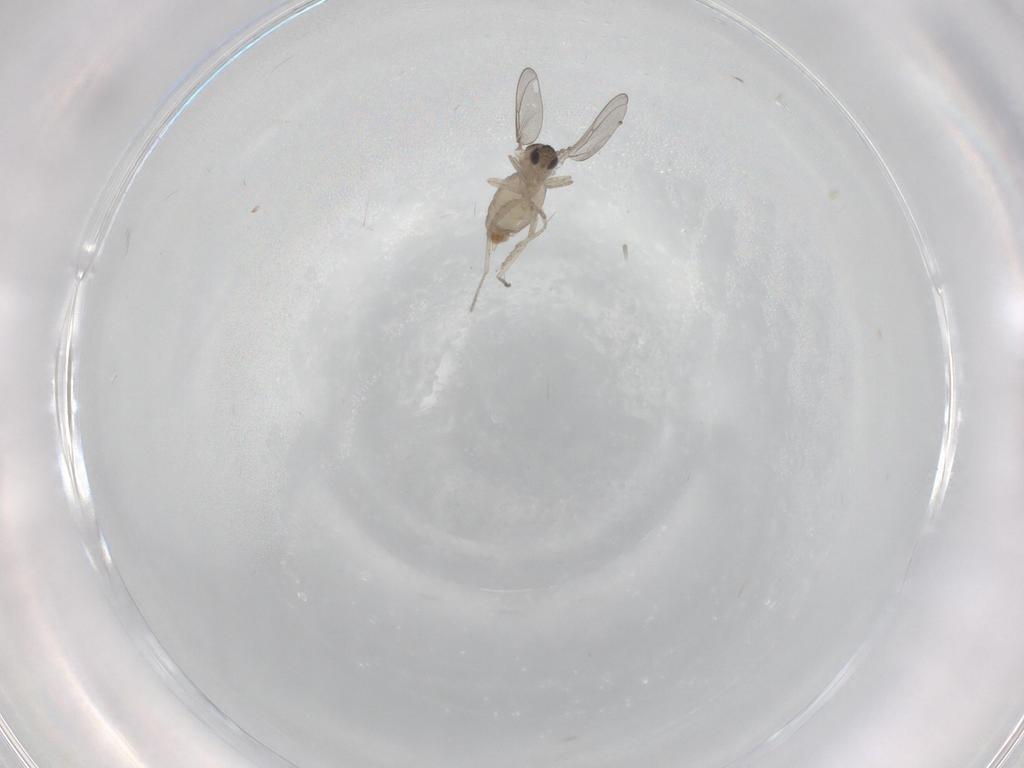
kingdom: Animalia
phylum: Arthropoda
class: Insecta
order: Diptera
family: Cecidomyiidae
